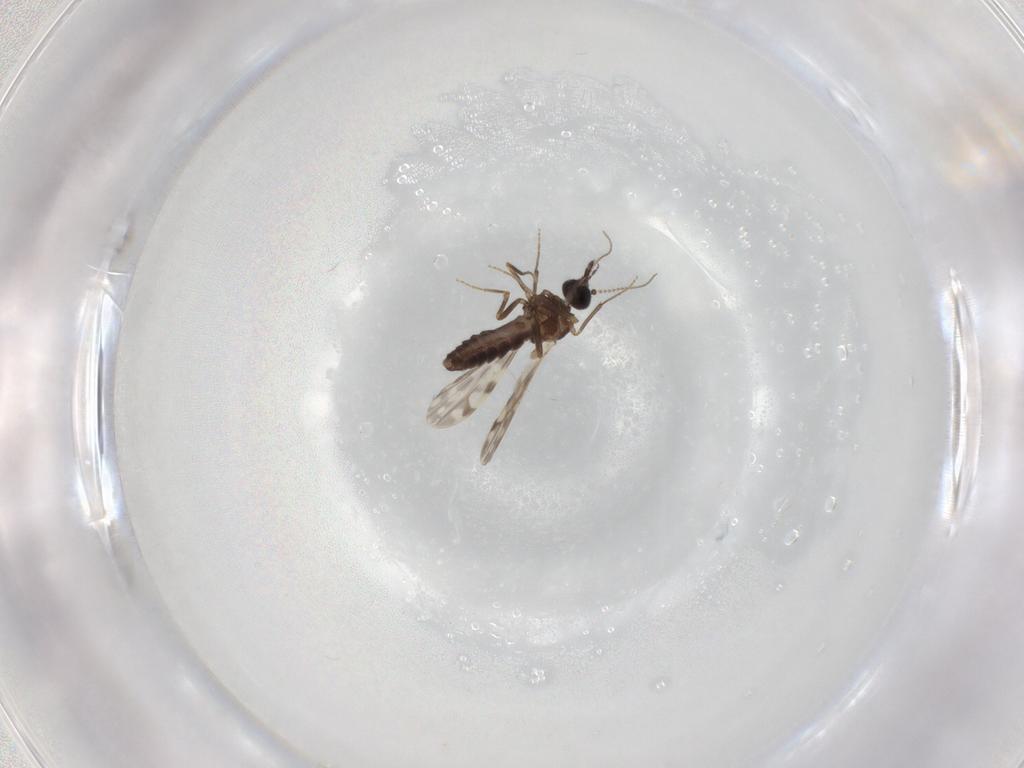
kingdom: Animalia
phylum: Arthropoda
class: Insecta
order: Diptera
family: Ceratopogonidae
